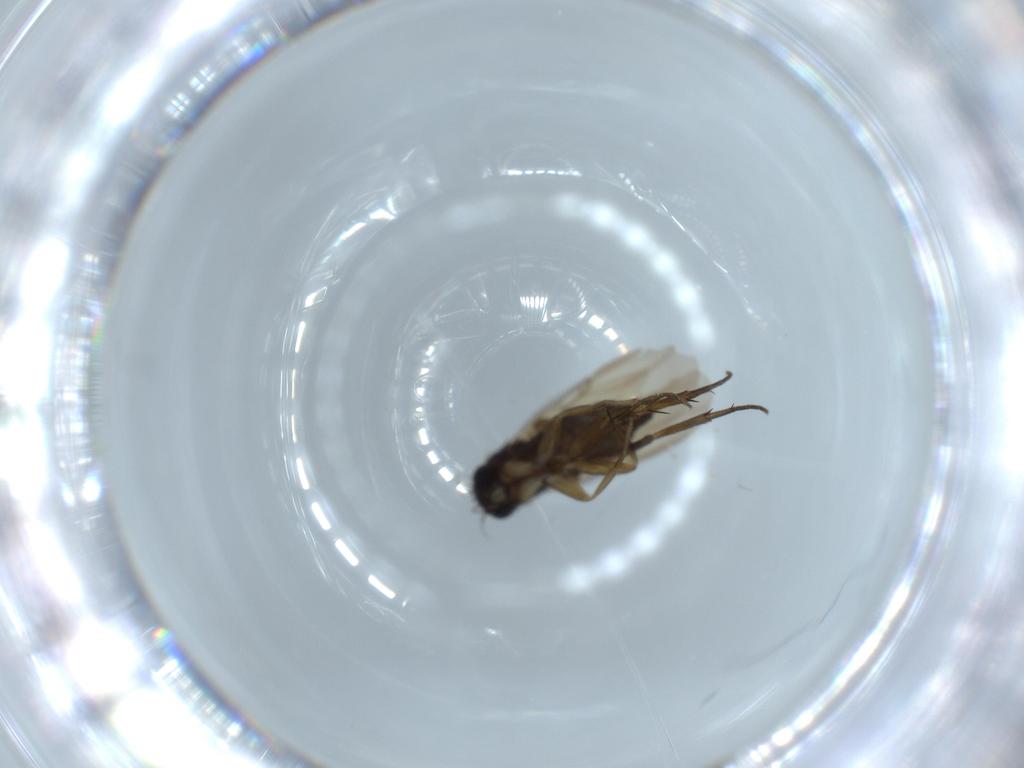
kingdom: Animalia
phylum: Arthropoda
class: Insecta
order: Diptera
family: Phoridae
